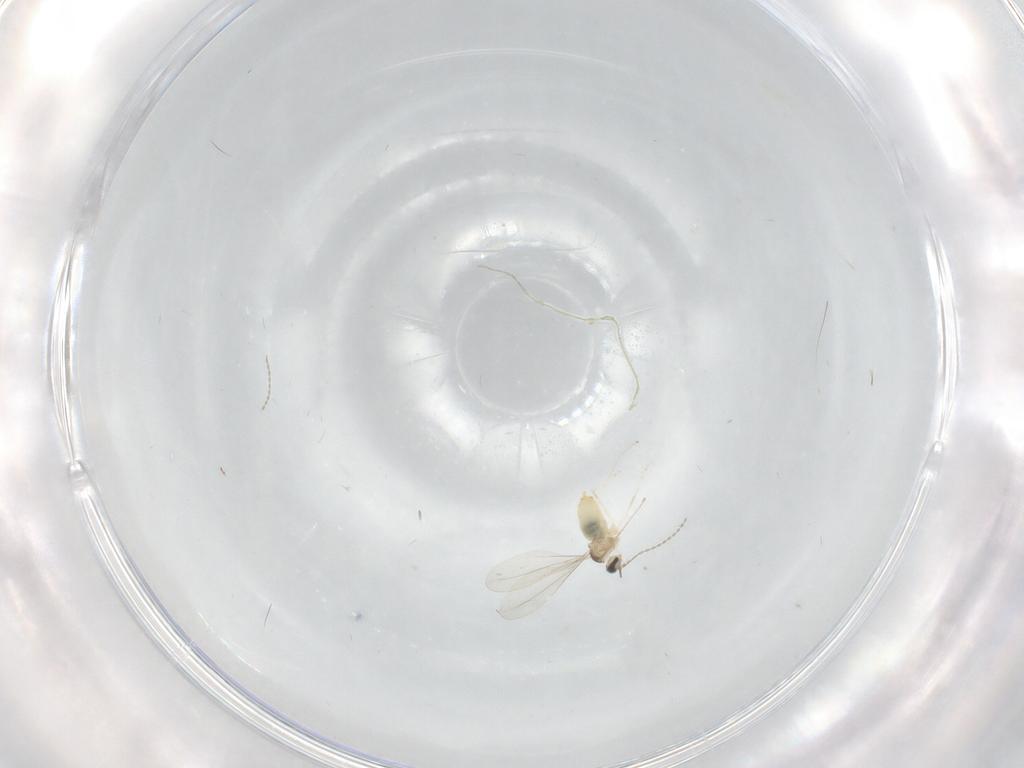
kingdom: Animalia
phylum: Arthropoda
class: Insecta
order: Diptera
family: Cecidomyiidae
